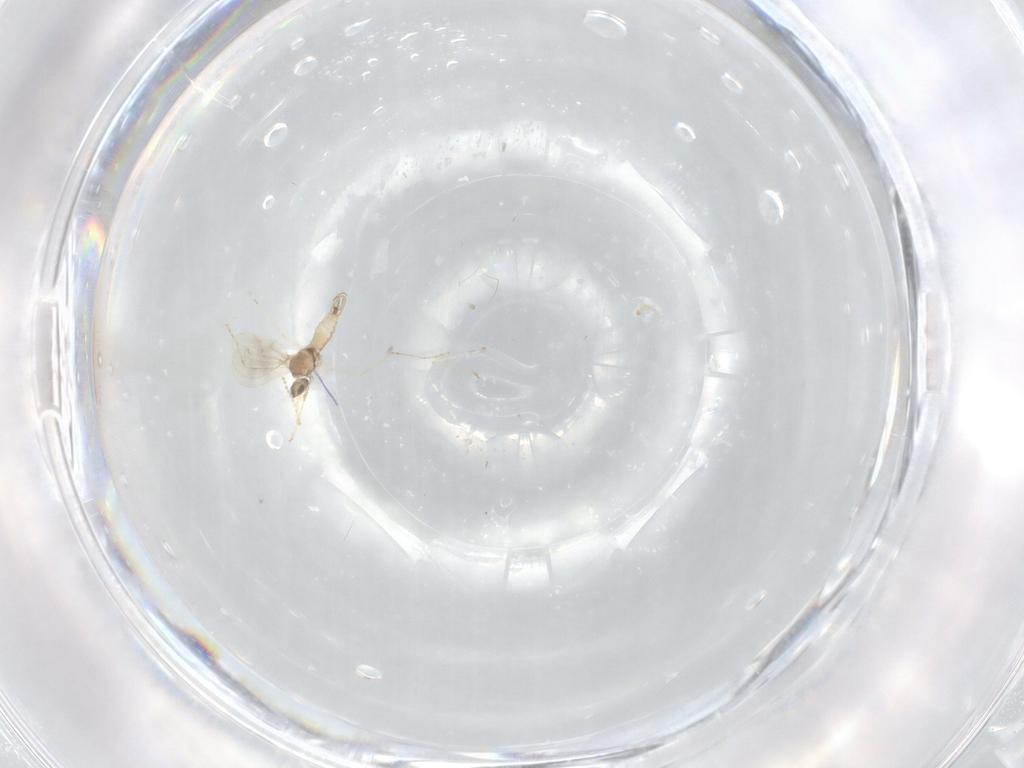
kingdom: Animalia
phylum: Arthropoda
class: Insecta
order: Diptera
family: Cecidomyiidae
